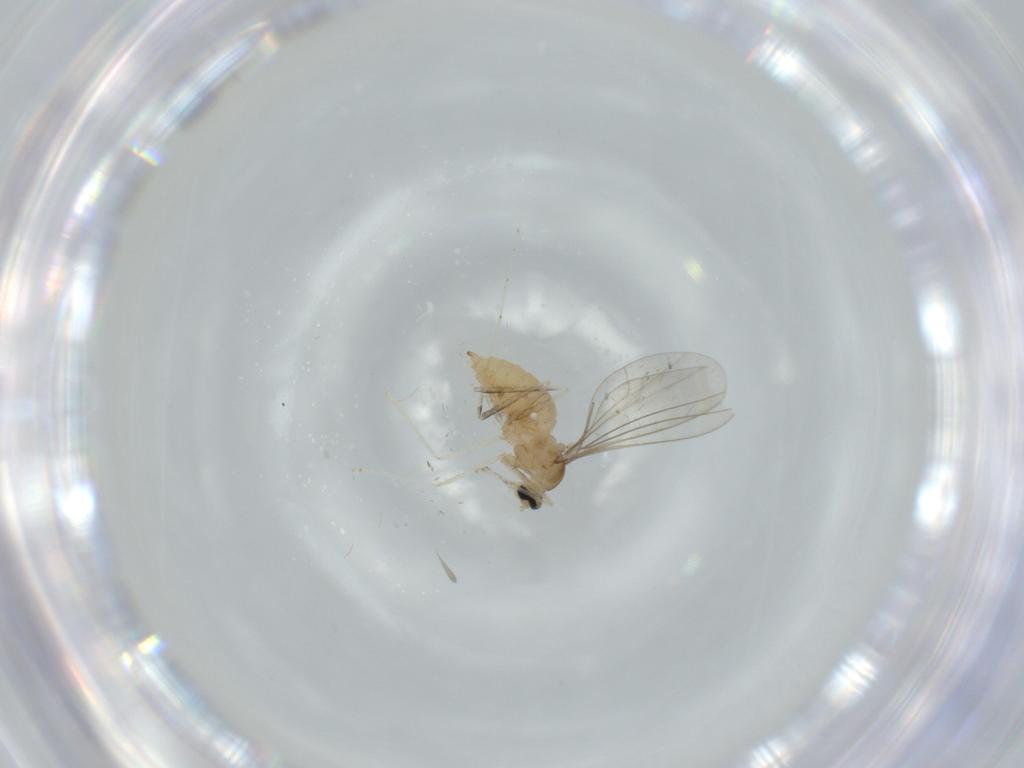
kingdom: Animalia
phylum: Arthropoda
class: Insecta
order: Diptera
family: Cecidomyiidae
